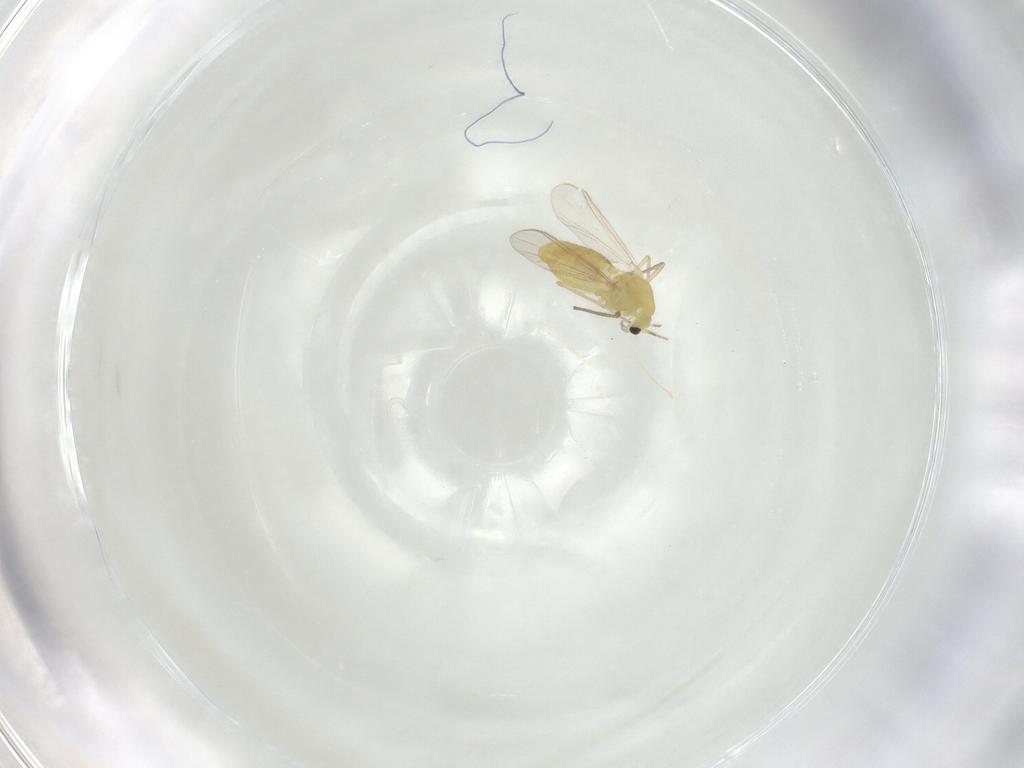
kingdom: Animalia
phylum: Arthropoda
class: Insecta
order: Diptera
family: Chironomidae
